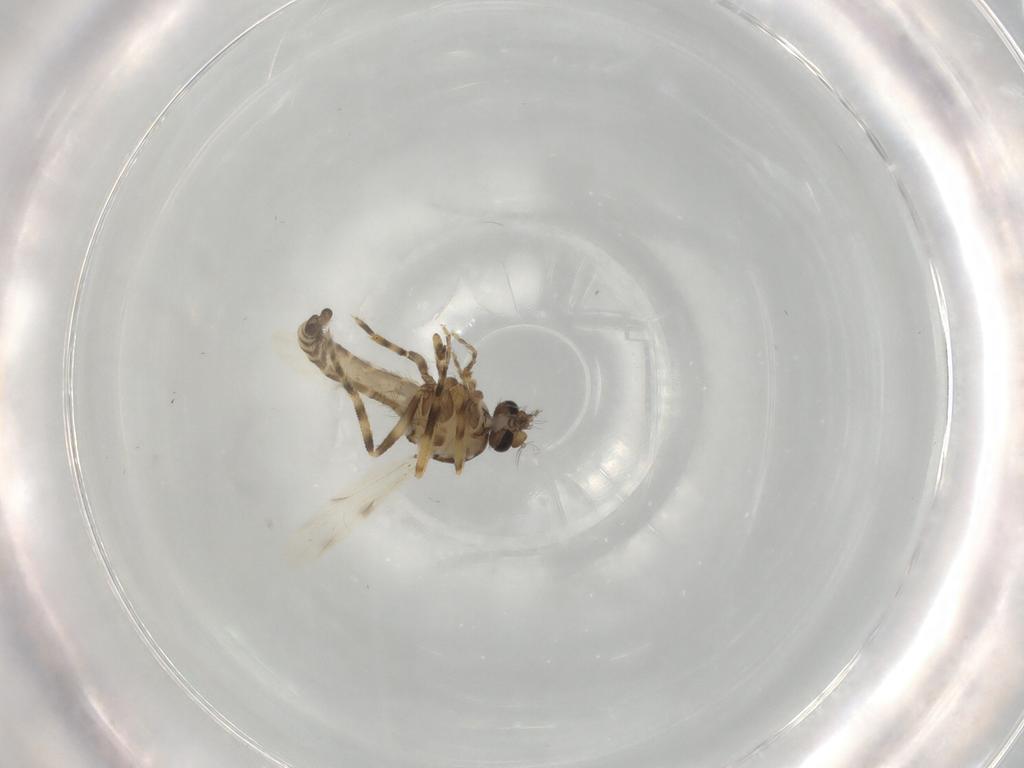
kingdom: Animalia
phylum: Arthropoda
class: Insecta
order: Diptera
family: Ceratopogonidae
